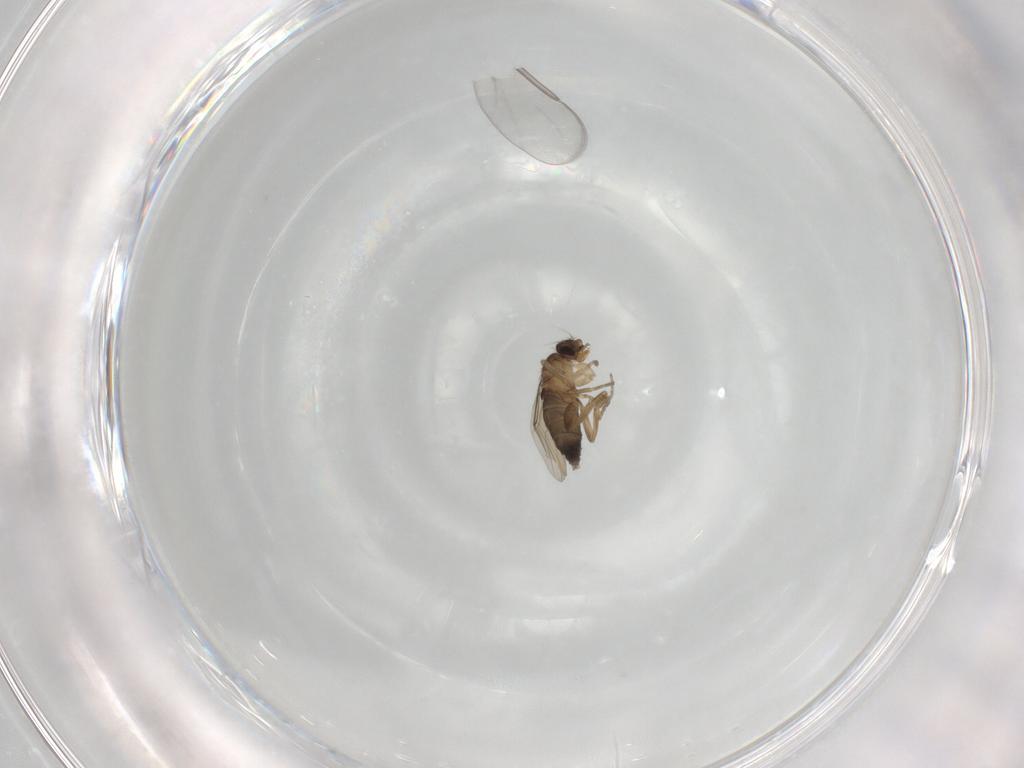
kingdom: Animalia
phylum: Arthropoda
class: Insecta
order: Diptera
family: Phoridae
